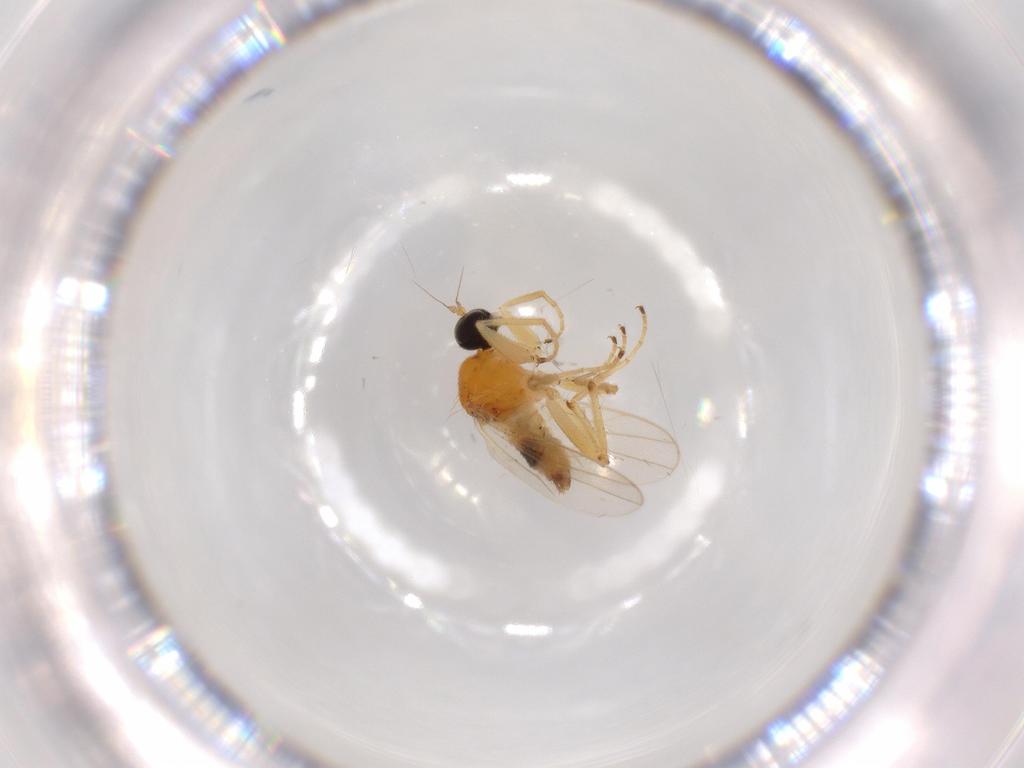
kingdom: Animalia
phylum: Arthropoda
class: Insecta
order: Diptera
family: Hybotidae
